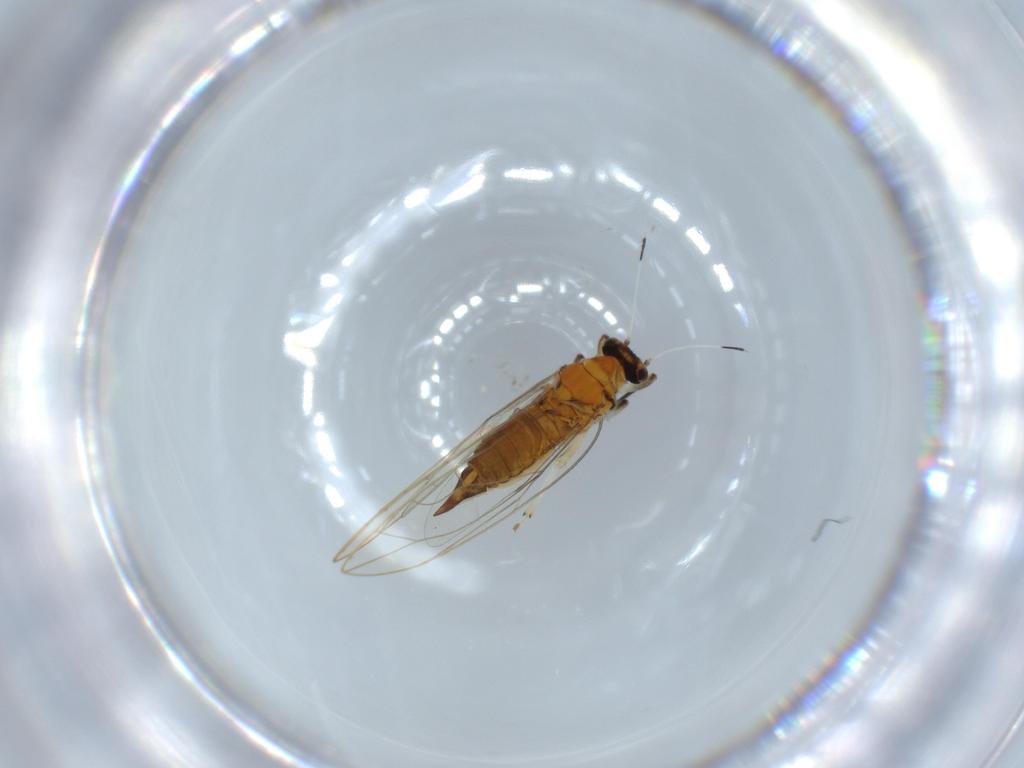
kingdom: Animalia
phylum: Arthropoda
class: Insecta
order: Hemiptera
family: Triozidae
